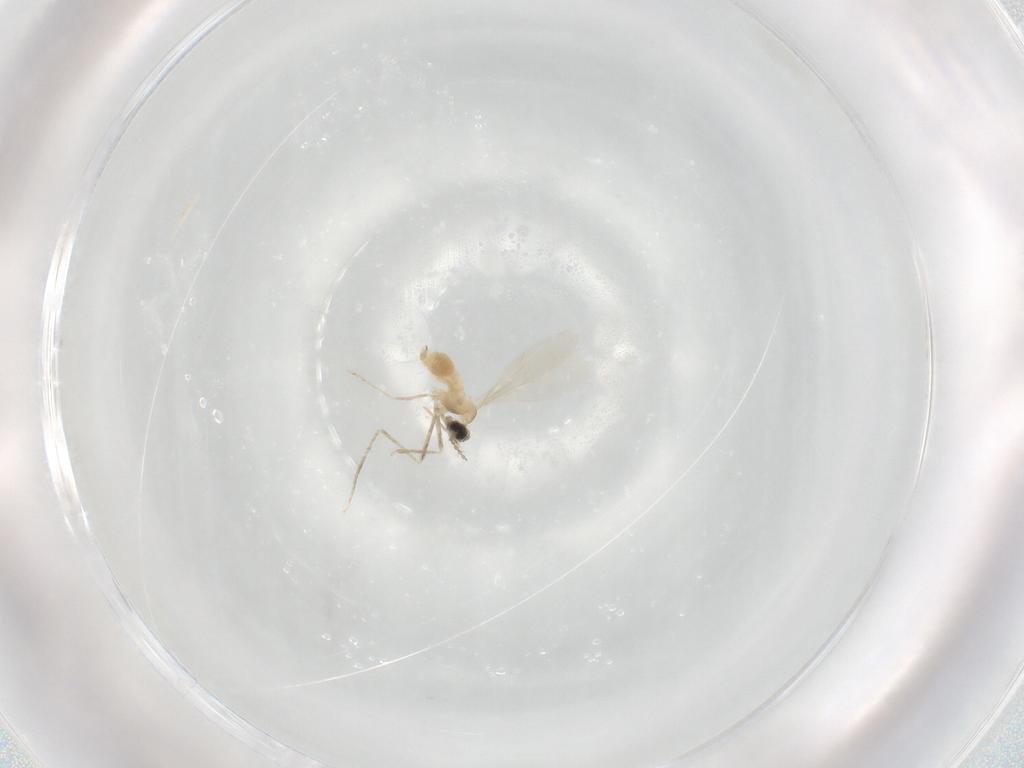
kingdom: Animalia
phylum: Arthropoda
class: Insecta
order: Diptera
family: Cecidomyiidae
